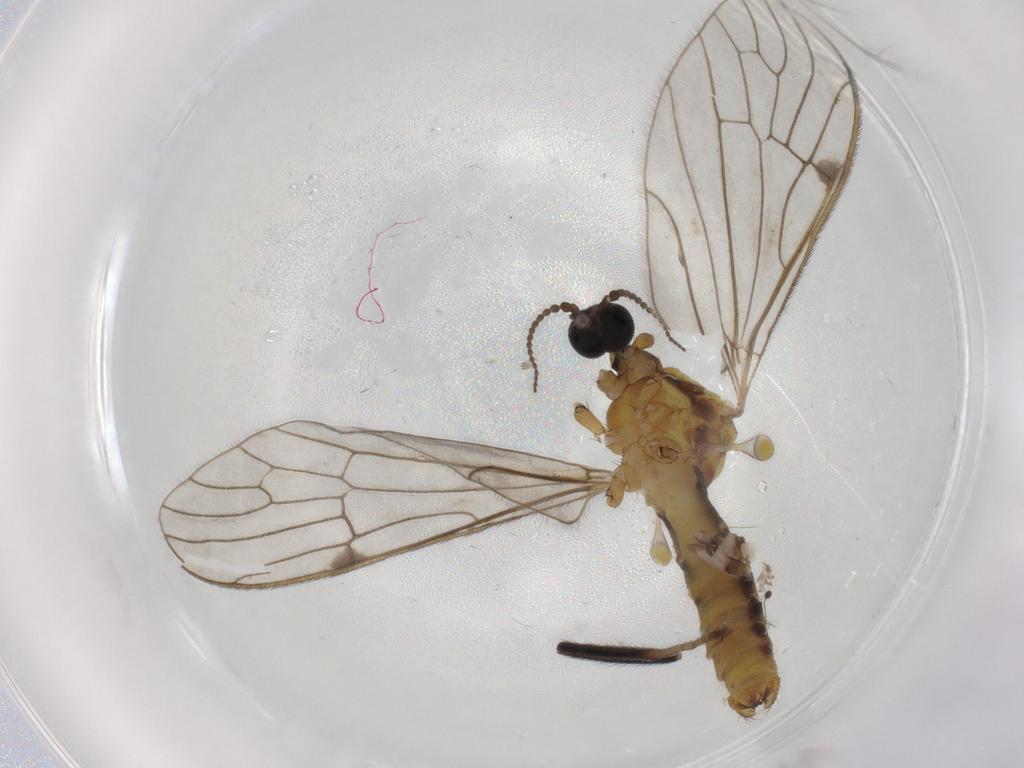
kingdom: Animalia
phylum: Arthropoda
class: Insecta
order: Diptera
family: Limoniidae
